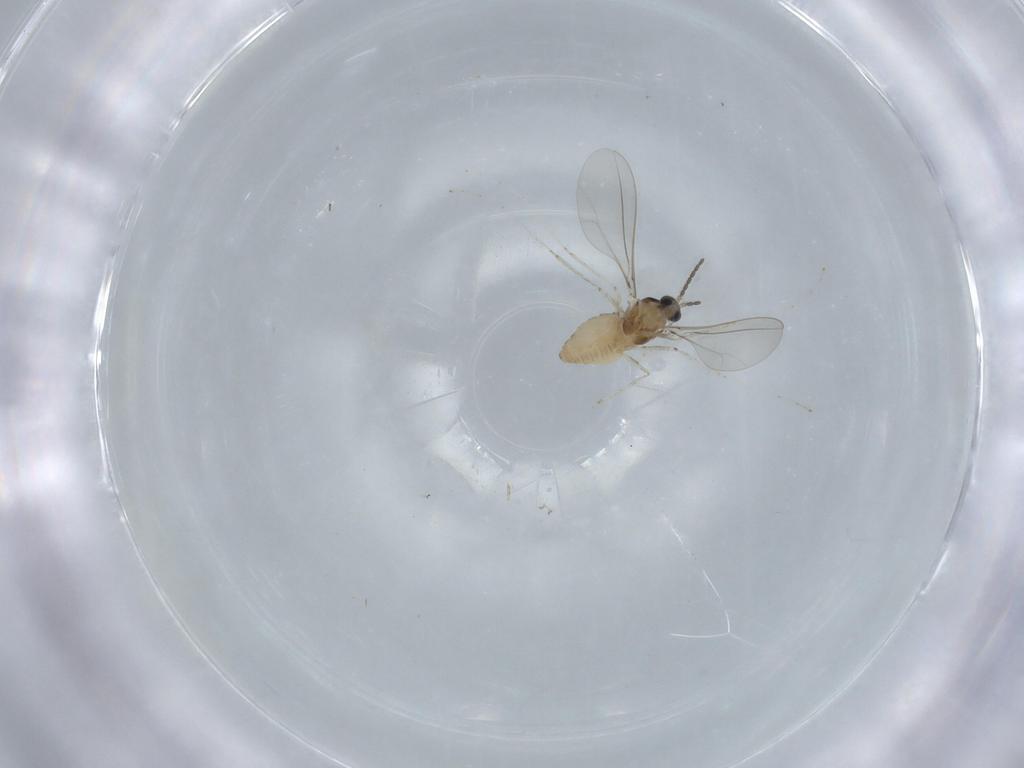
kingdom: Animalia
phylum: Arthropoda
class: Insecta
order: Diptera
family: Cecidomyiidae
